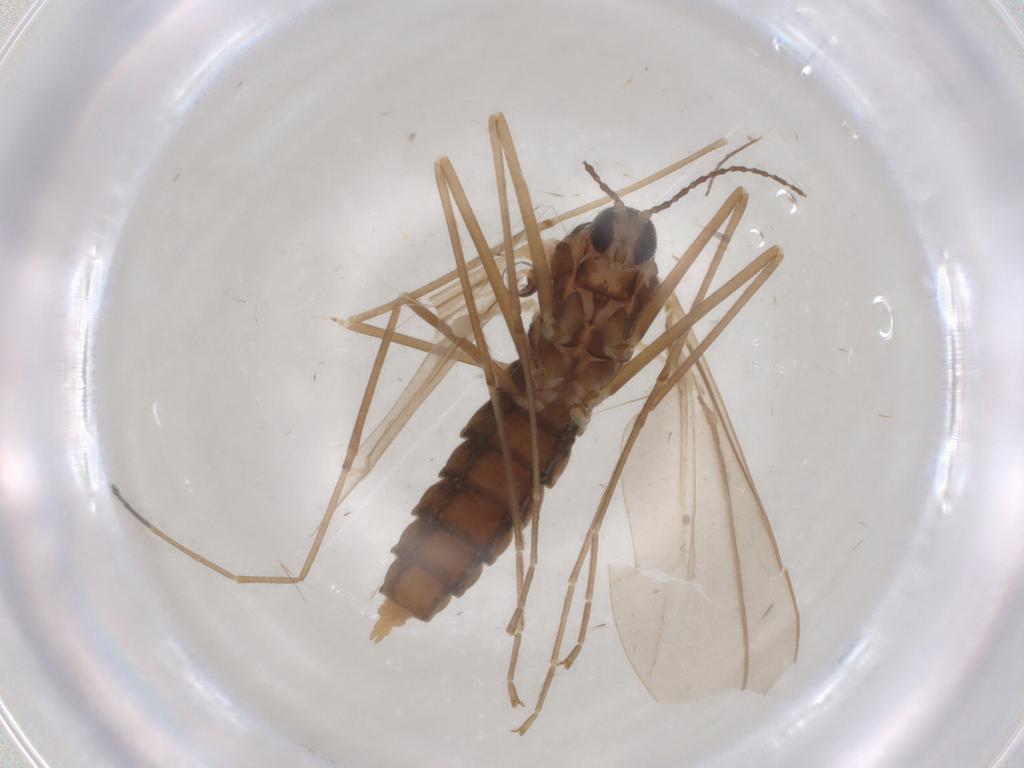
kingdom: Animalia
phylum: Arthropoda
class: Insecta
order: Diptera
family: Cecidomyiidae
